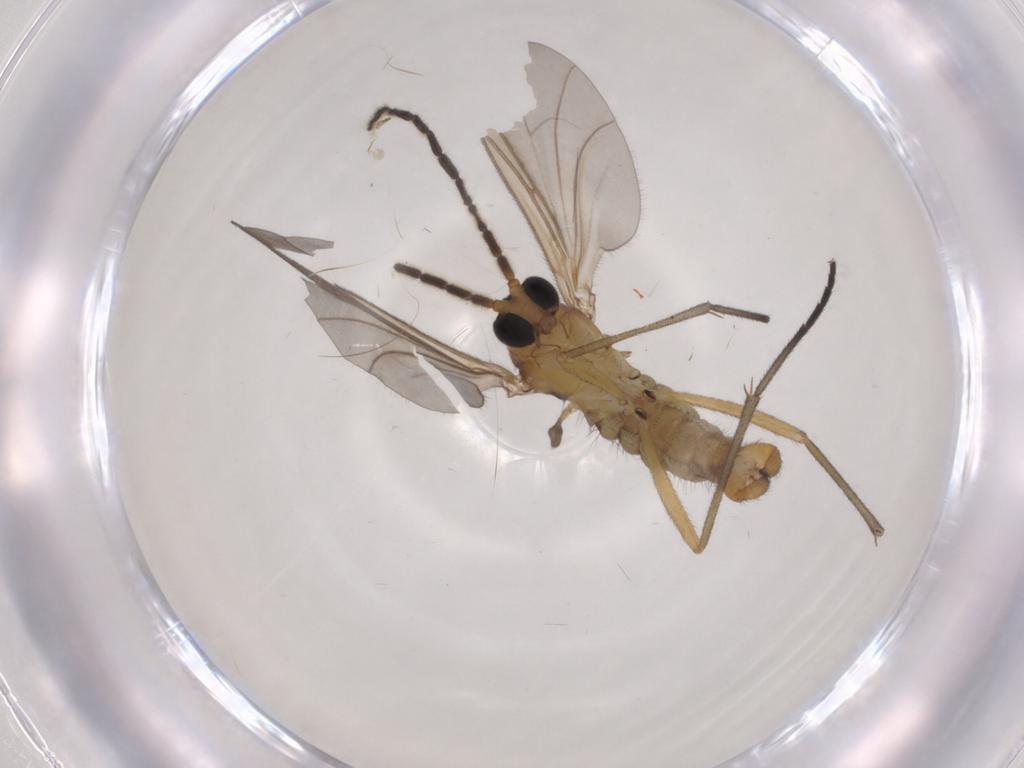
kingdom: Animalia
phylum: Arthropoda
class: Insecta
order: Diptera
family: Sciaridae
